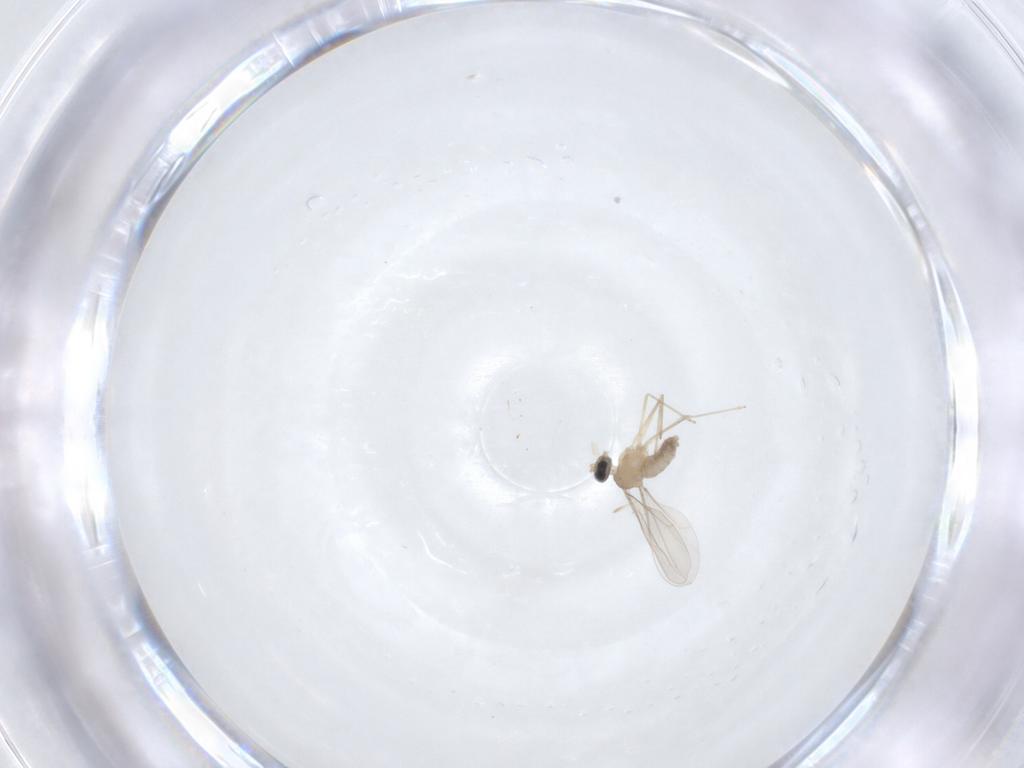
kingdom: Animalia
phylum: Arthropoda
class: Insecta
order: Diptera
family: Cecidomyiidae
